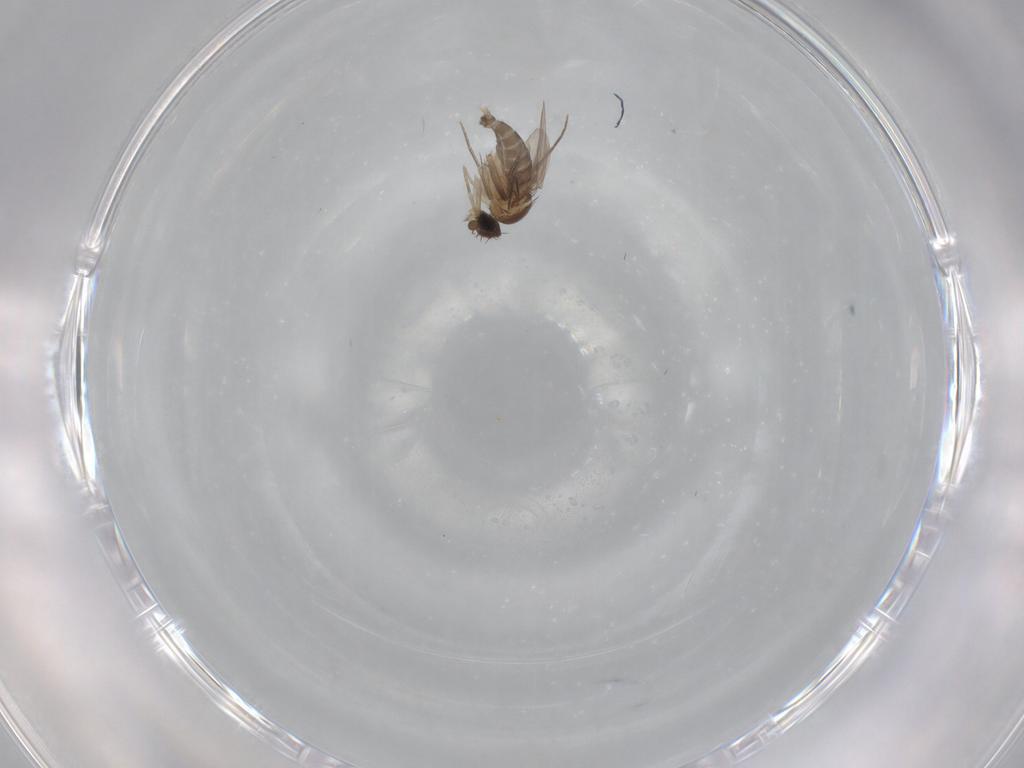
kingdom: Animalia
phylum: Arthropoda
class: Insecta
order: Diptera
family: Phoridae
